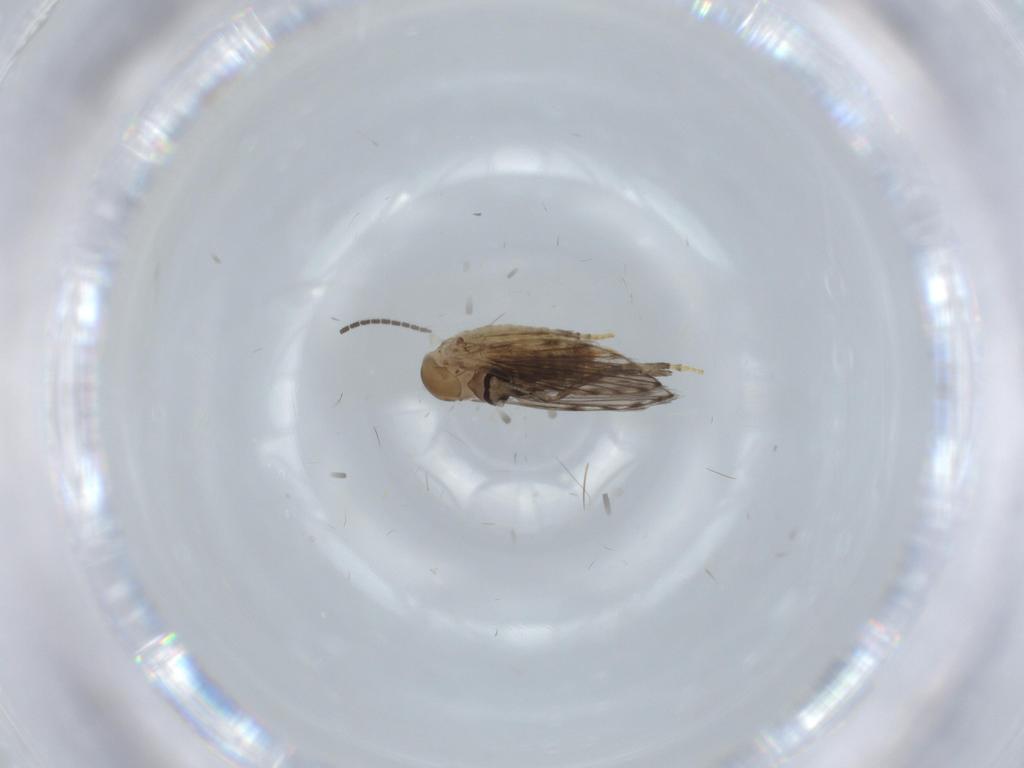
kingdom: Animalia
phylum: Arthropoda
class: Insecta
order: Diptera
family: Psychodidae
